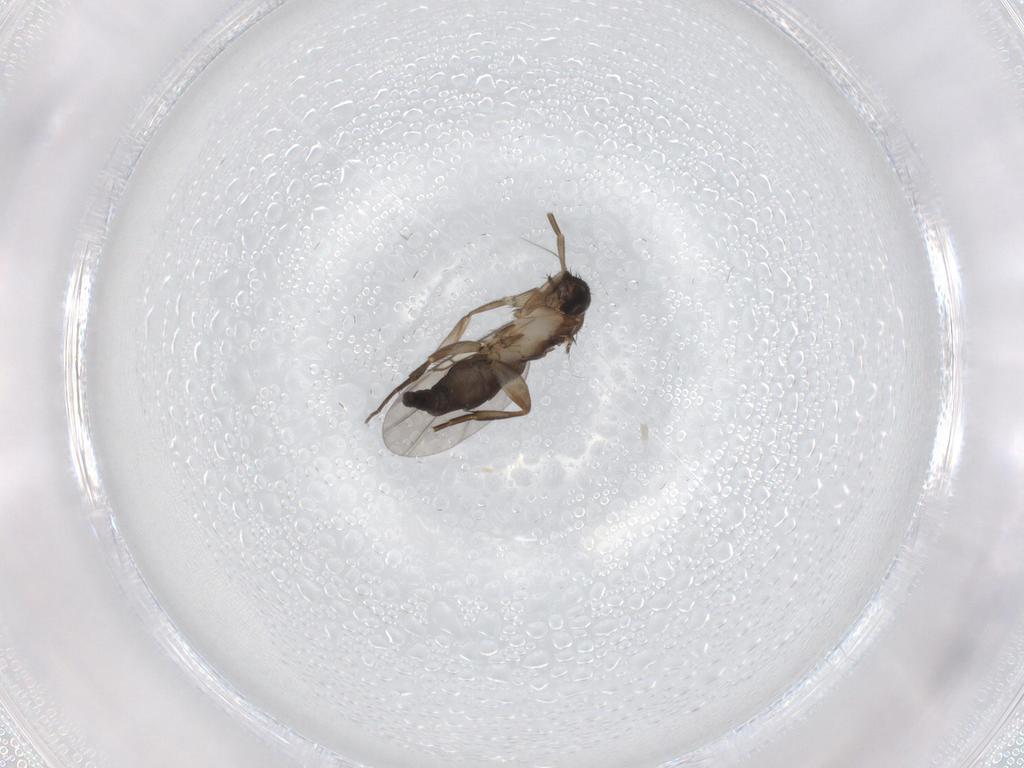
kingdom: Animalia
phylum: Arthropoda
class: Insecta
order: Diptera
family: Phoridae
